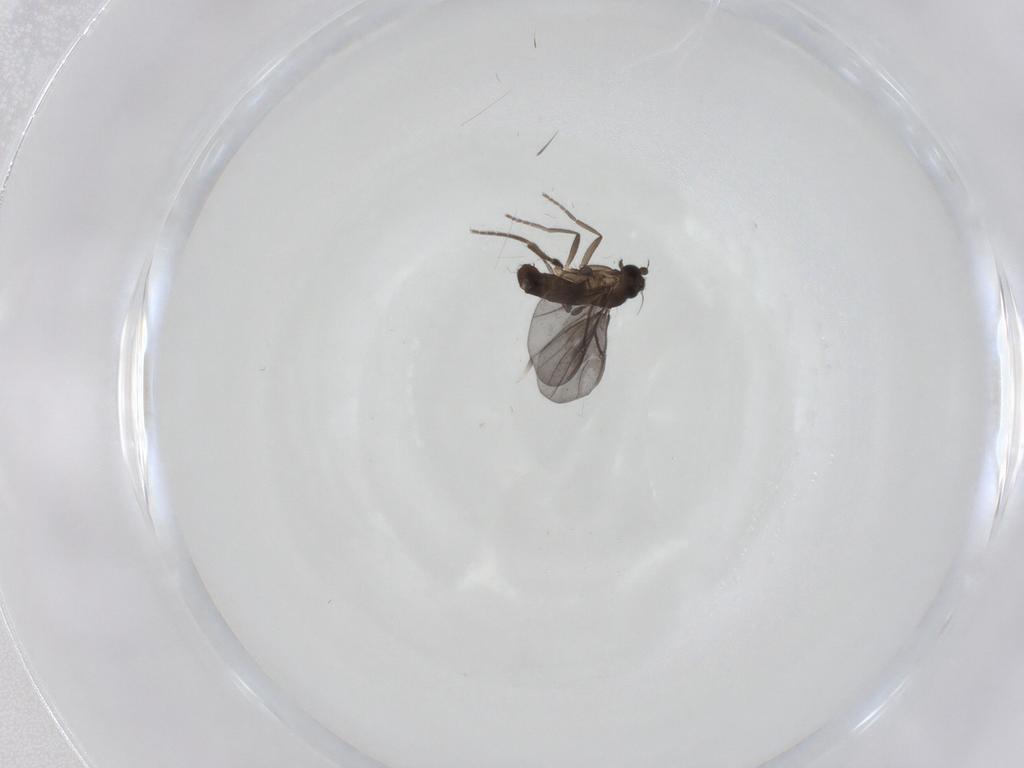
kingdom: Animalia
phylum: Arthropoda
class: Insecta
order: Diptera
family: Phoridae
